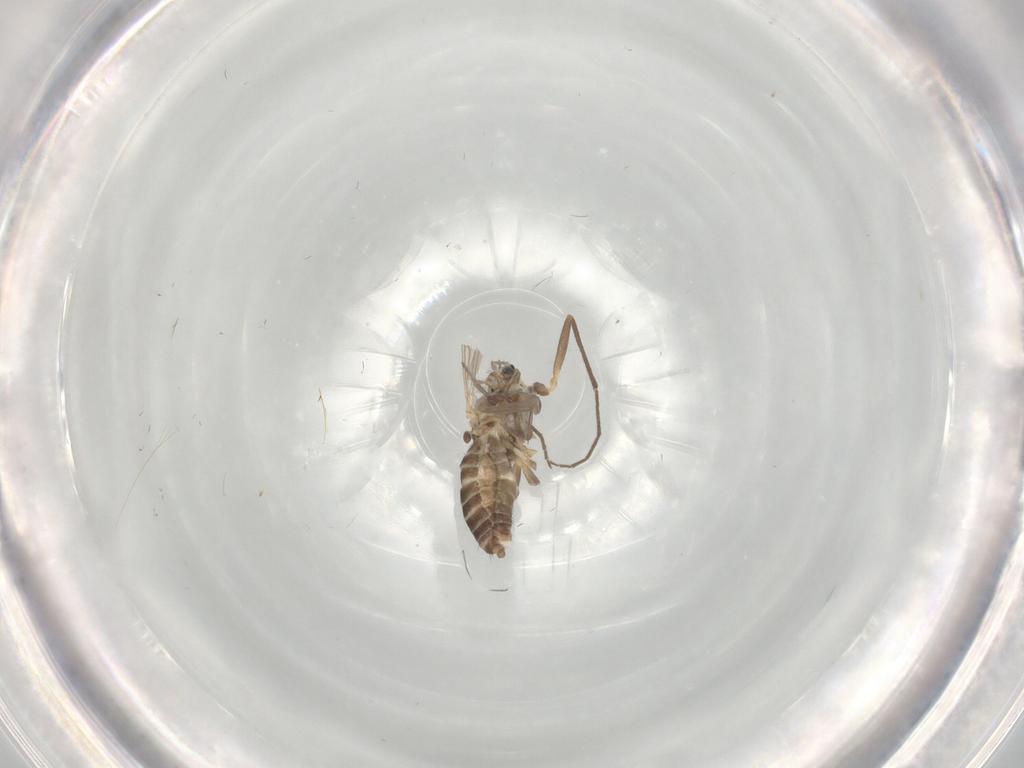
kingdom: Animalia
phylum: Arthropoda
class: Insecta
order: Diptera
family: Chironomidae
